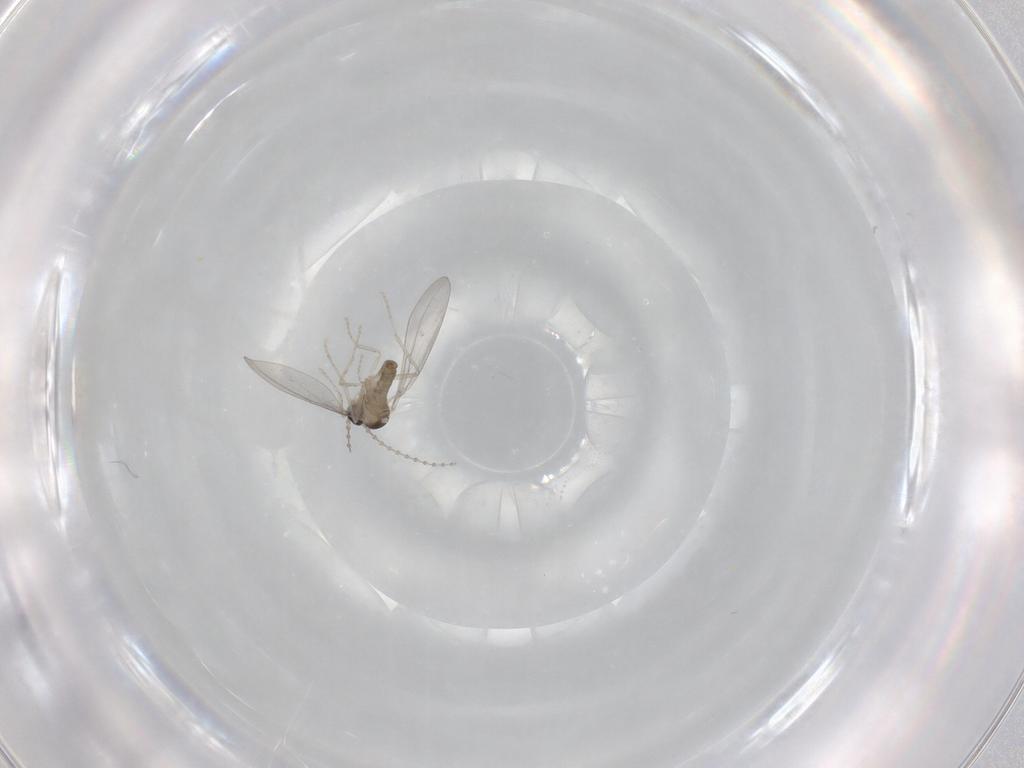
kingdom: Animalia
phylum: Arthropoda
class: Insecta
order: Diptera
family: Cecidomyiidae
